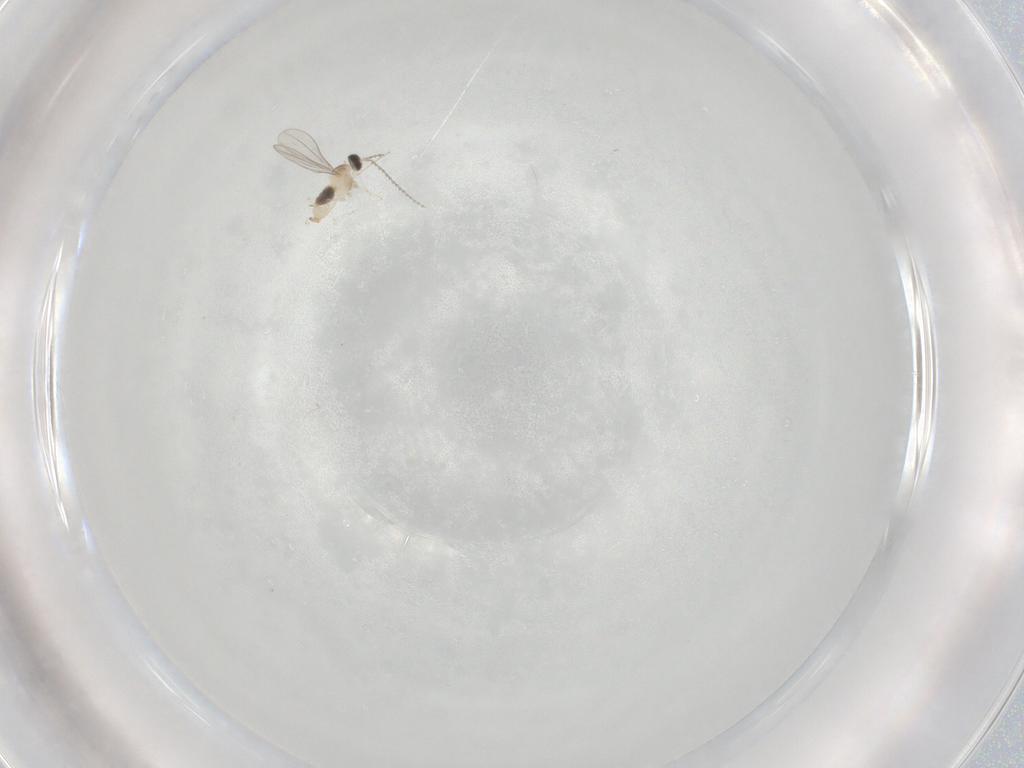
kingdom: Animalia
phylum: Arthropoda
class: Insecta
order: Diptera
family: Cecidomyiidae
